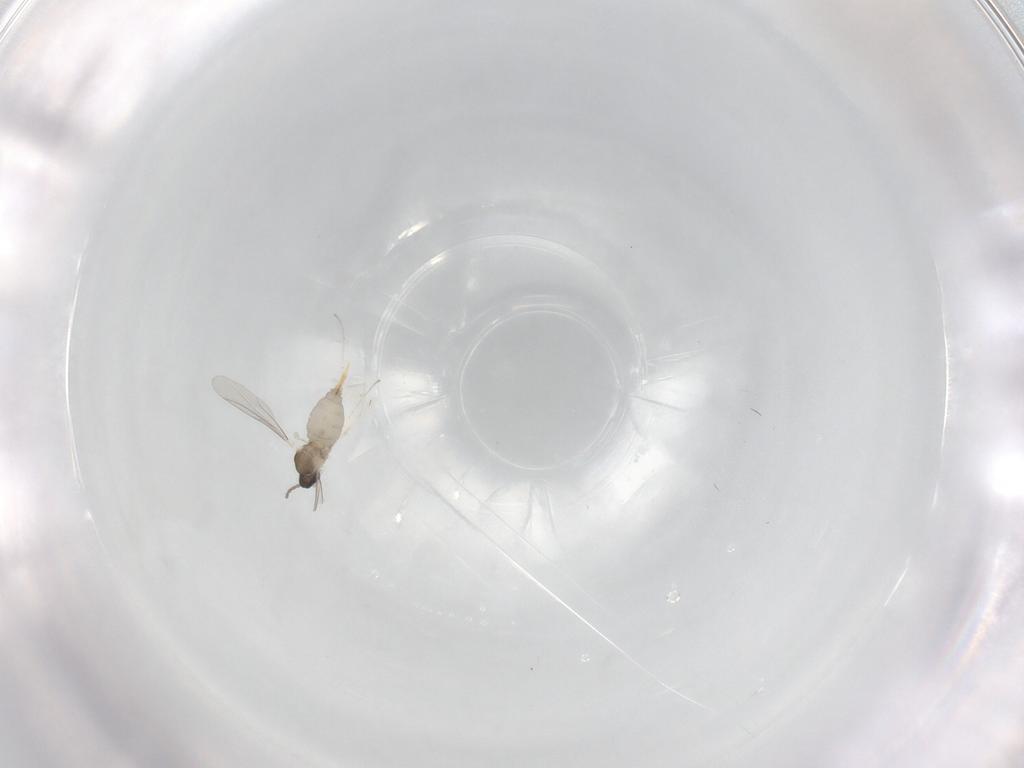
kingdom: Animalia
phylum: Arthropoda
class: Insecta
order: Diptera
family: Cecidomyiidae
